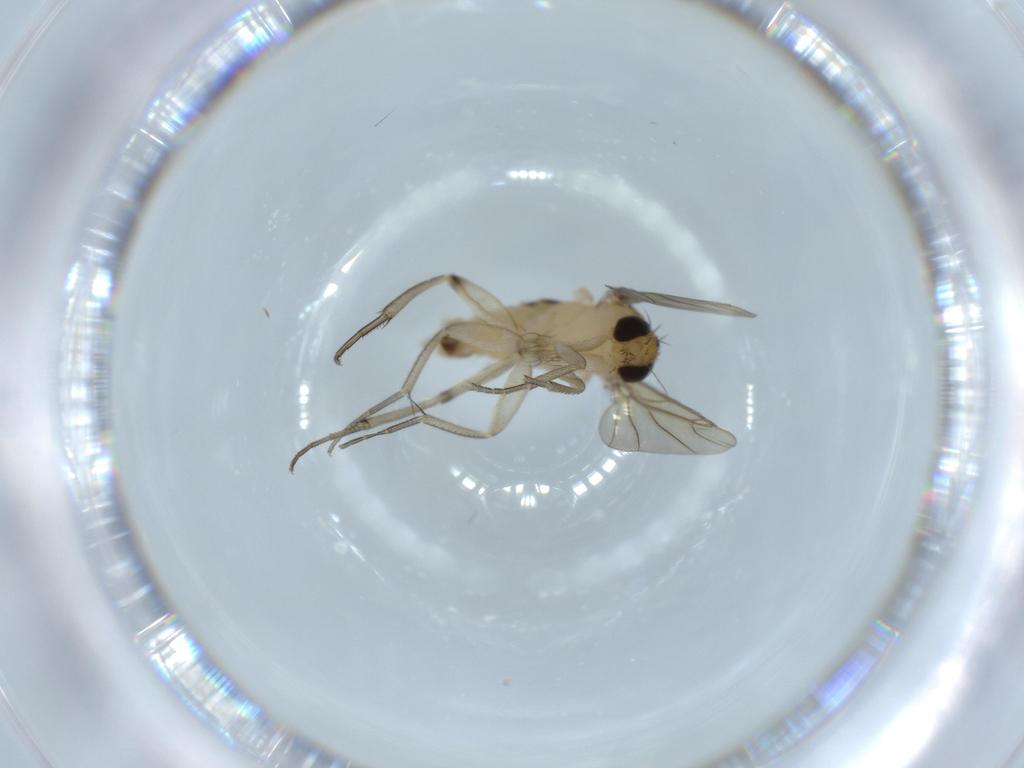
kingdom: Animalia
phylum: Arthropoda
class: Insecta
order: Diptera
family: Phoridae
